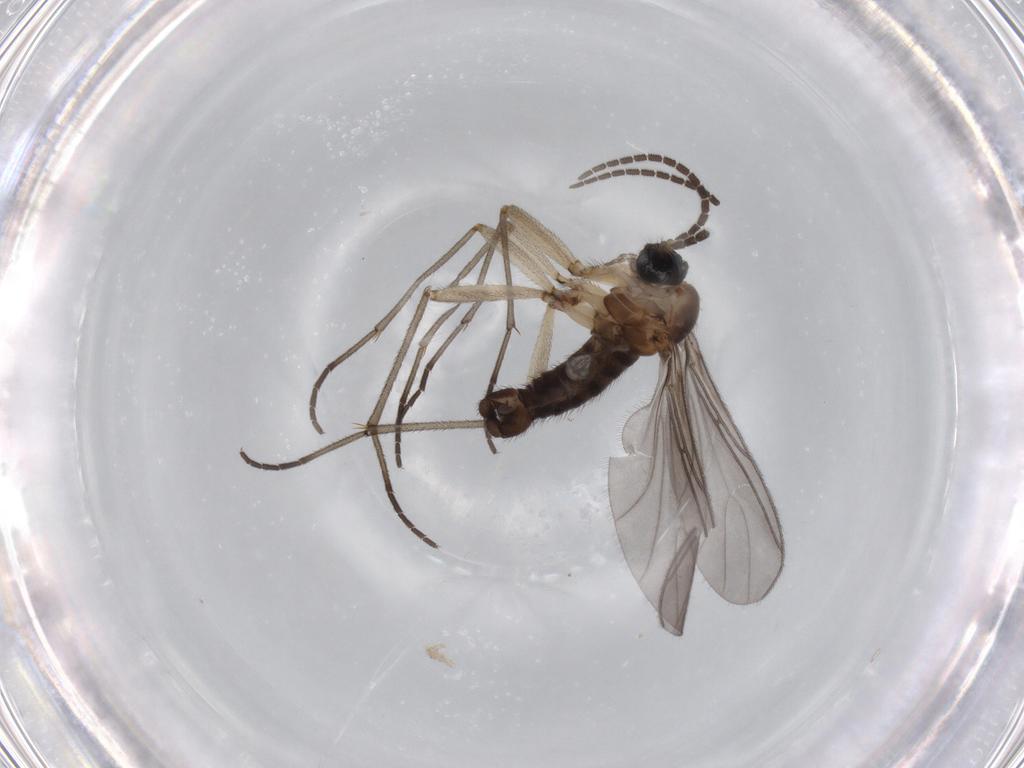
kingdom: Animalia
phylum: Arthropoda
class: Insecta
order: Diptera
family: Sciaridae
